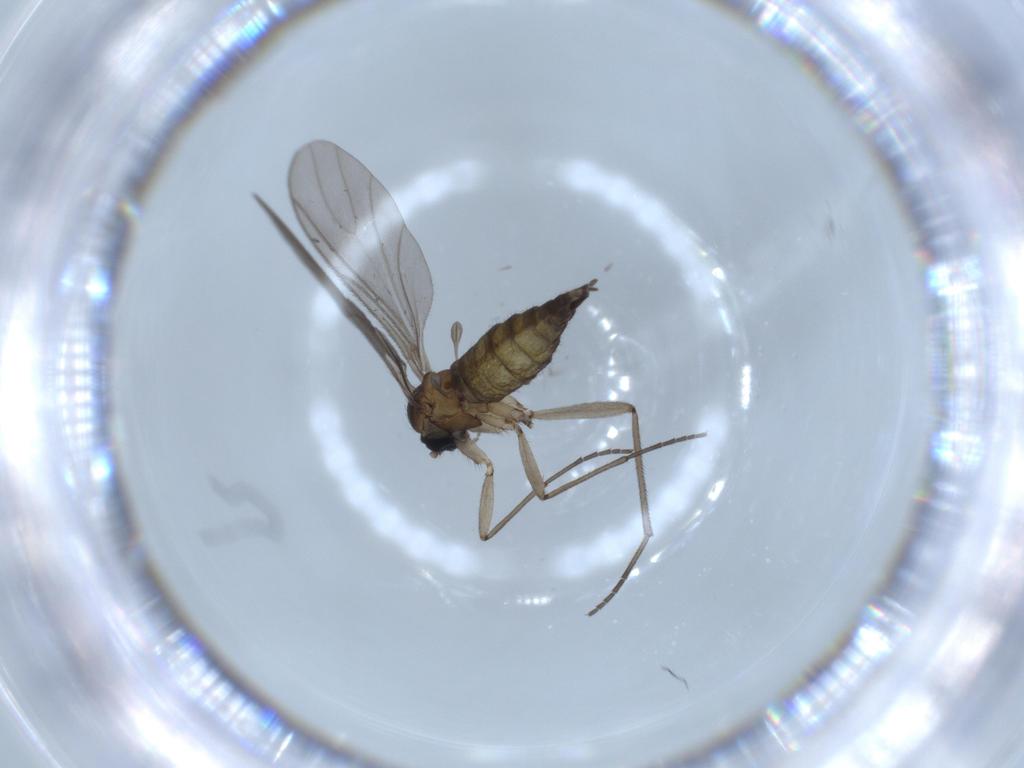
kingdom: Animalia
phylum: Arthropoda
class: Insecta
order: Diptera
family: Sciaridae
